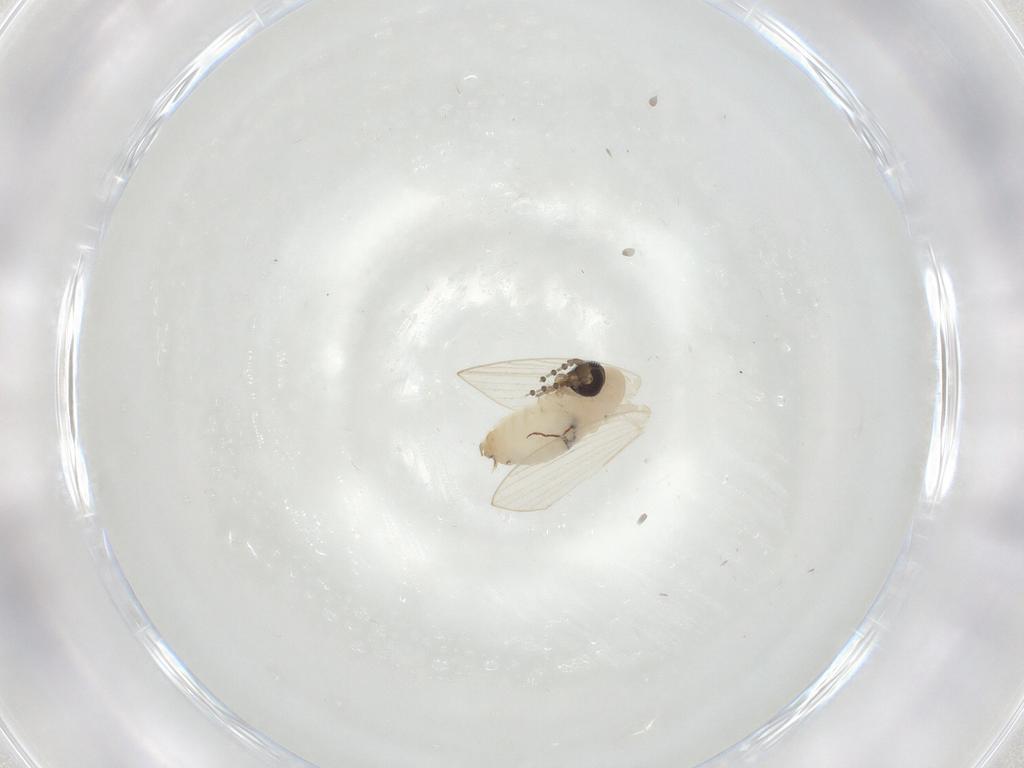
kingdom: Animalia
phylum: Arthropoda
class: Insecta
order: Diptera
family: Psychodidae
